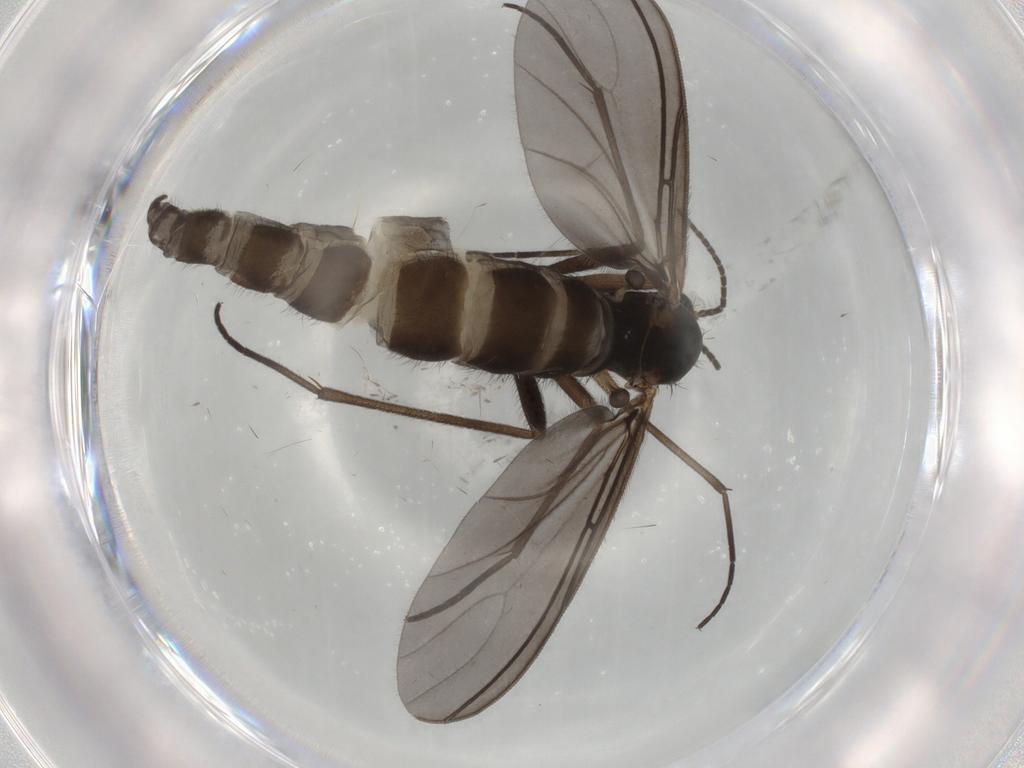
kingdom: Animalia
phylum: Arthropoda
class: Insecta
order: Diptera
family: Sciaridae
